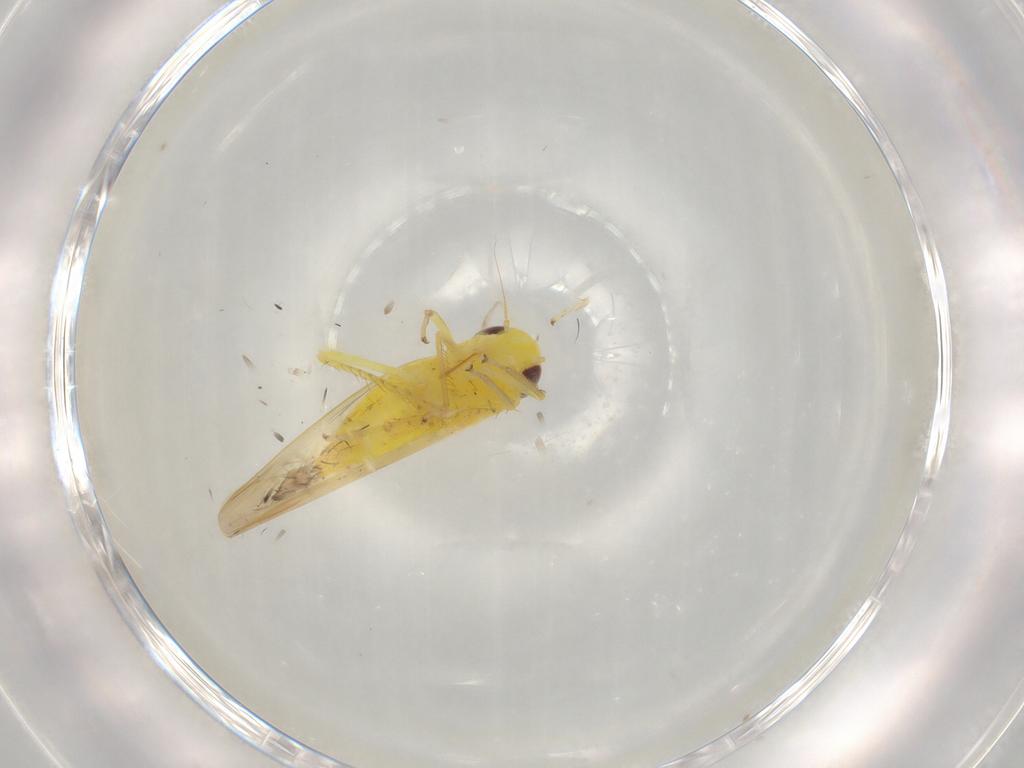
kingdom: Animalia
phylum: Arthropoda
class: Insecta
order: Hemiptera
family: Cicadellidae
